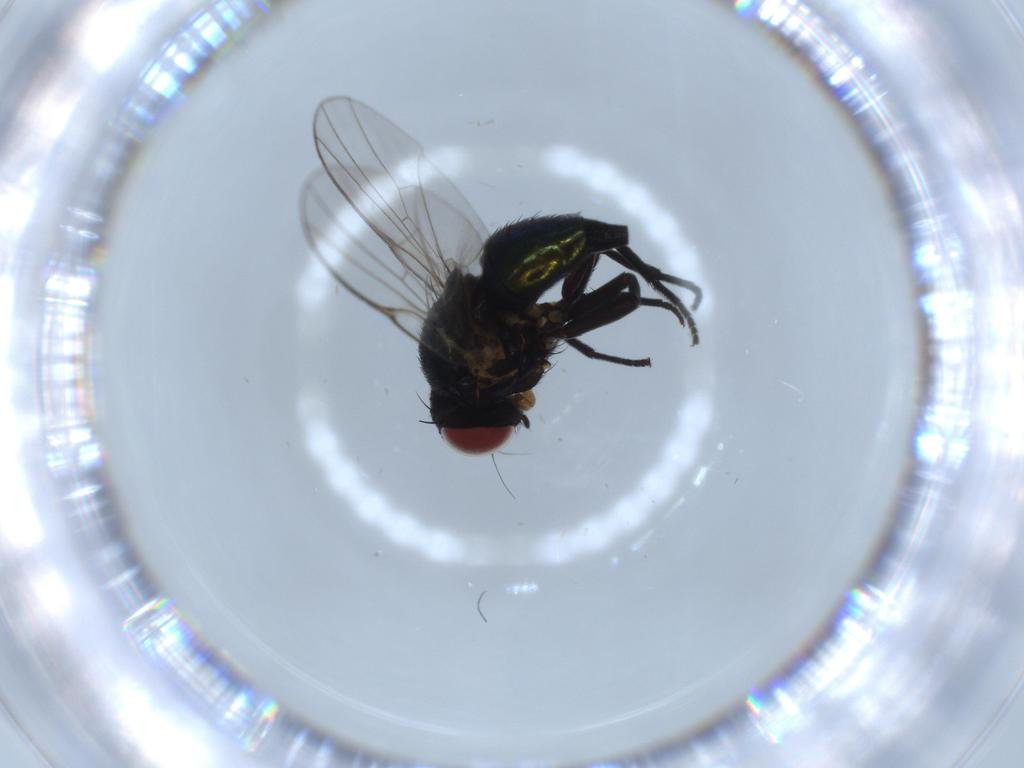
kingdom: Animalia
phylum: Arthropoda
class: Insecta
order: Diptera
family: Agromyzidae
